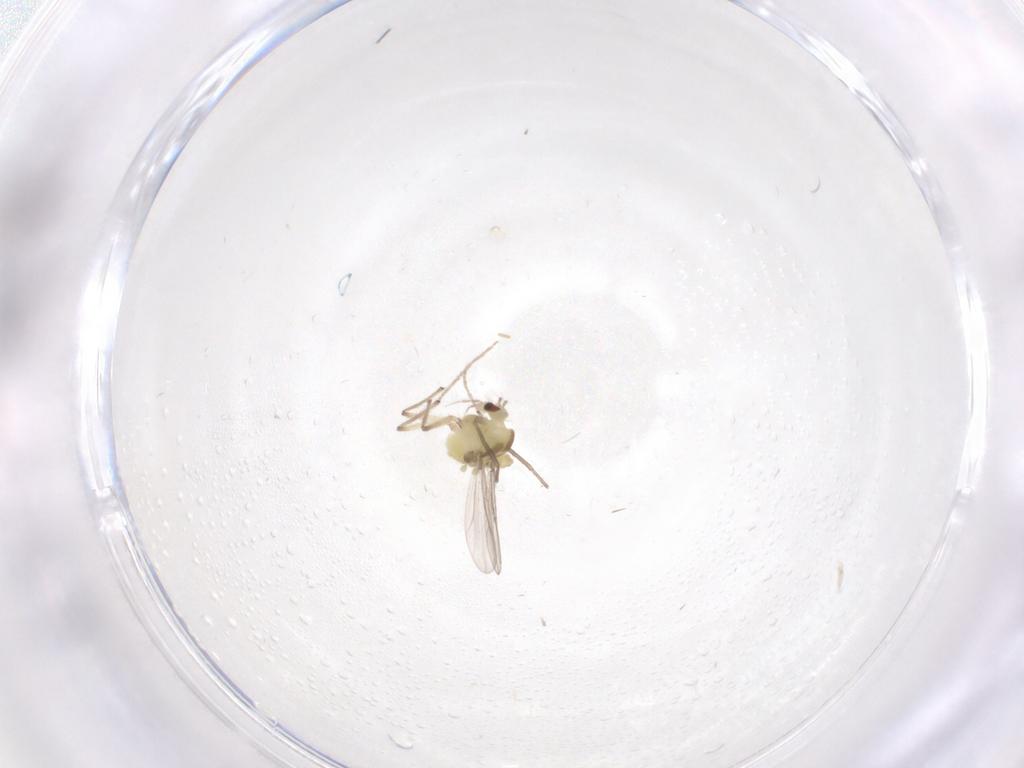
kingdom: Animalia
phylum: Arthropoda
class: Insecta
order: Diptera
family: Chironomidae
